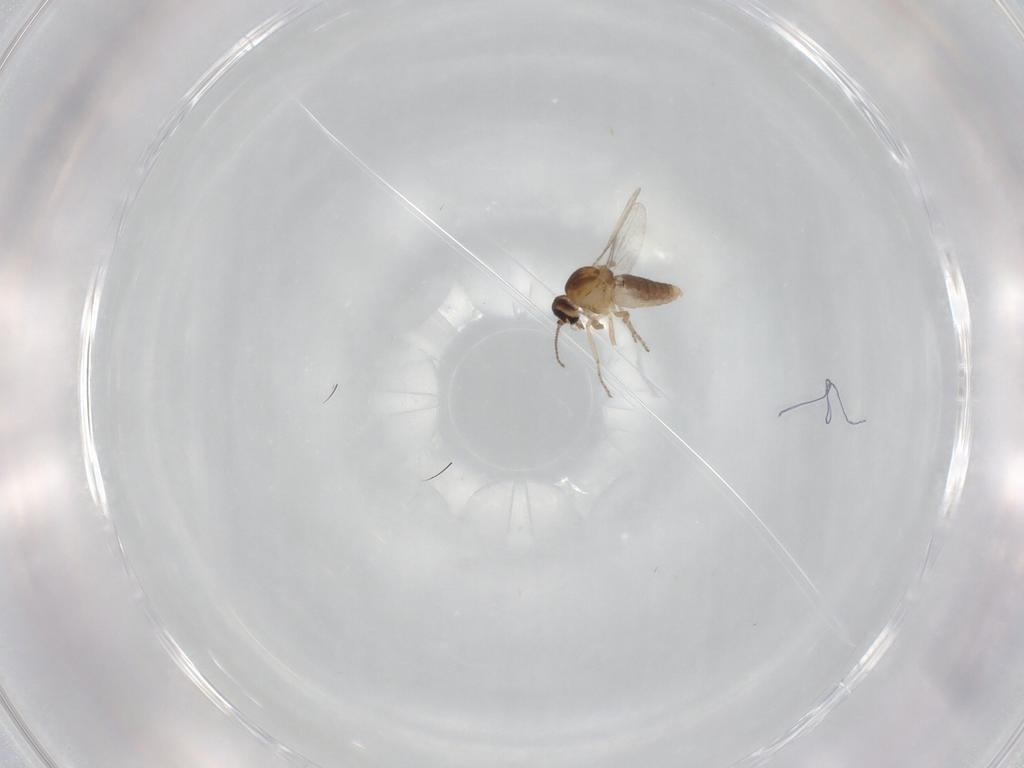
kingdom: Animalia
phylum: Arthropoda
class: Insecta
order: Diptera
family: Ceratopogonidae
